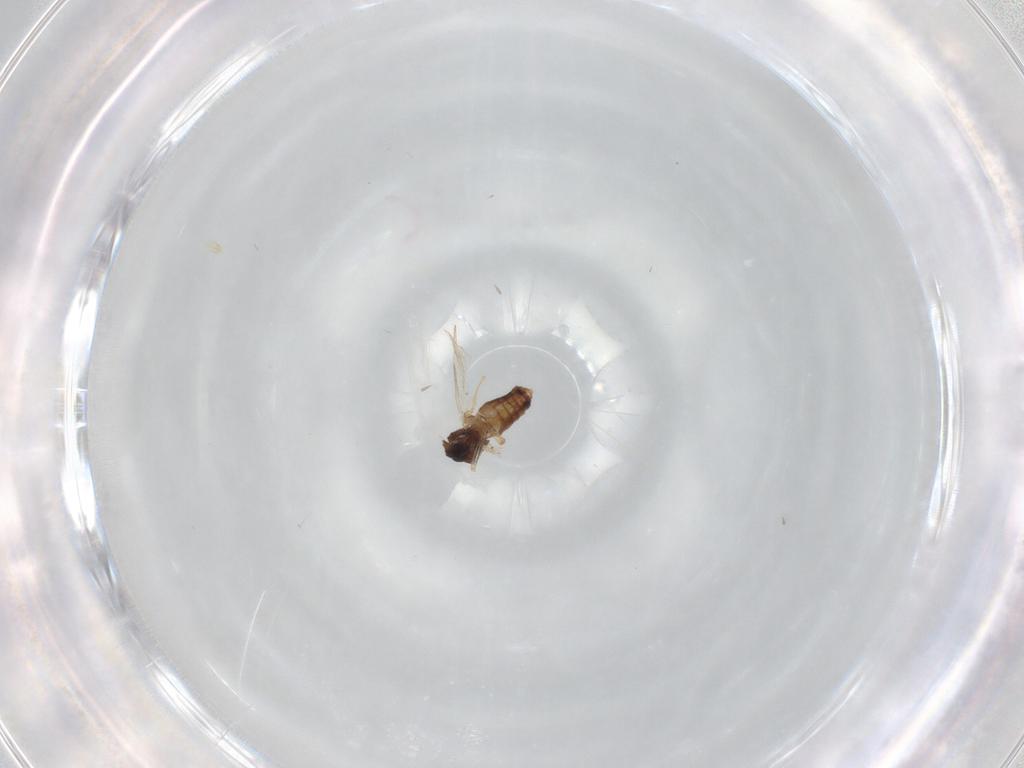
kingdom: Animalia
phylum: Arthropoda
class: Insecta
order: Diptera
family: Ceratopogonidae
